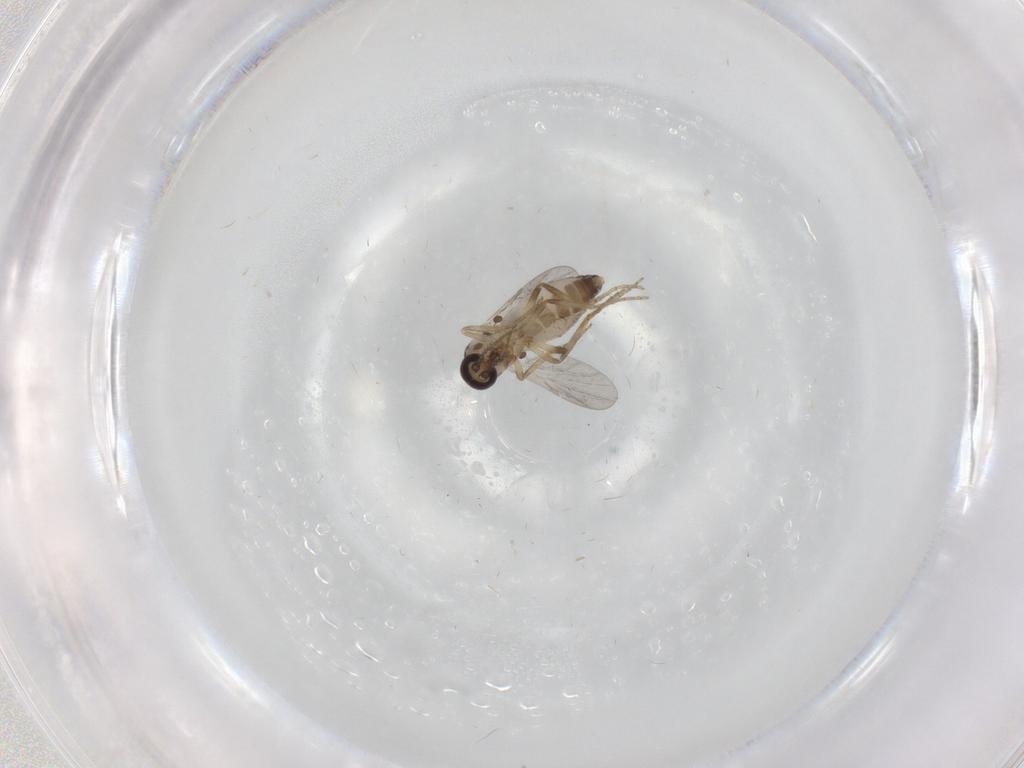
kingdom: Animalia
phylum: Arthropoda
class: Insecta
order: Diptera
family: Ceratopogonidae
